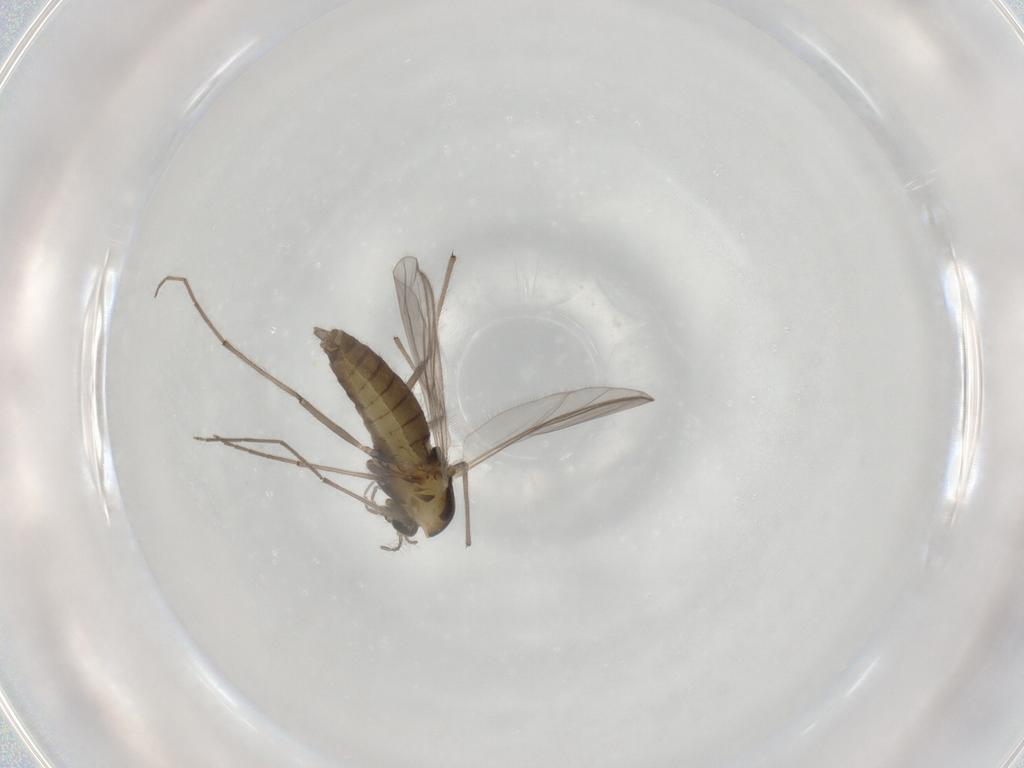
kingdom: Animalia
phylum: Arthropoda
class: Insecta
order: Diptera
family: Chironomidae
